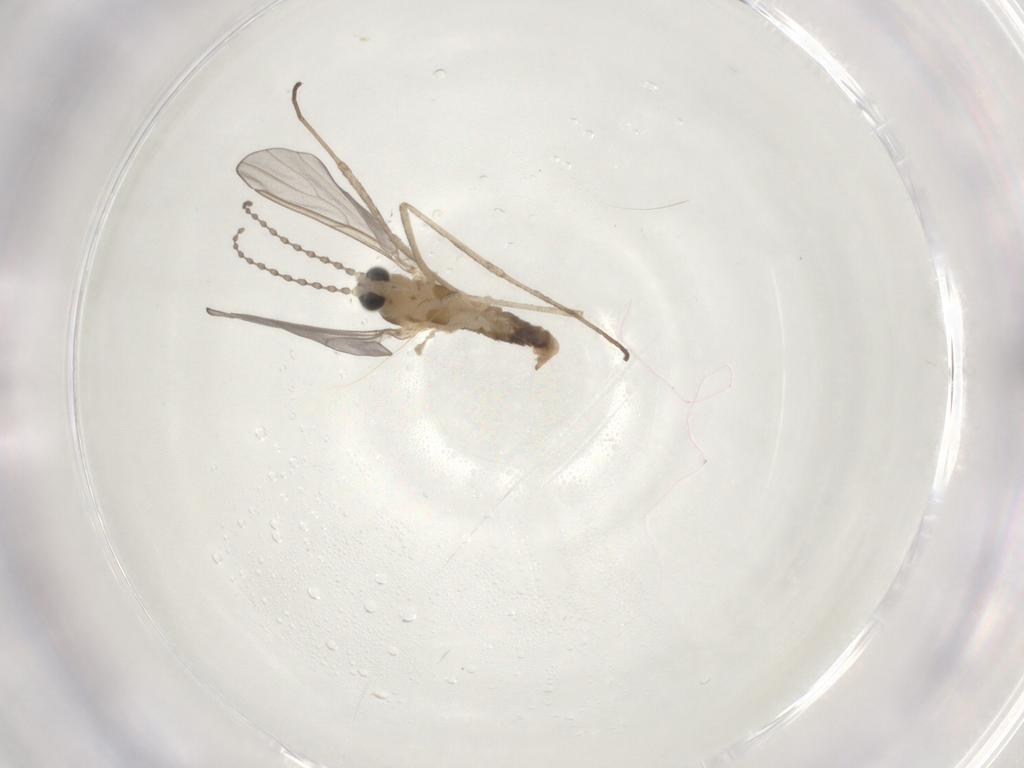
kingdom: Animalia
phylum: Arthropoda
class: Insecta
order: Diptera
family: Cecidomyiidae
